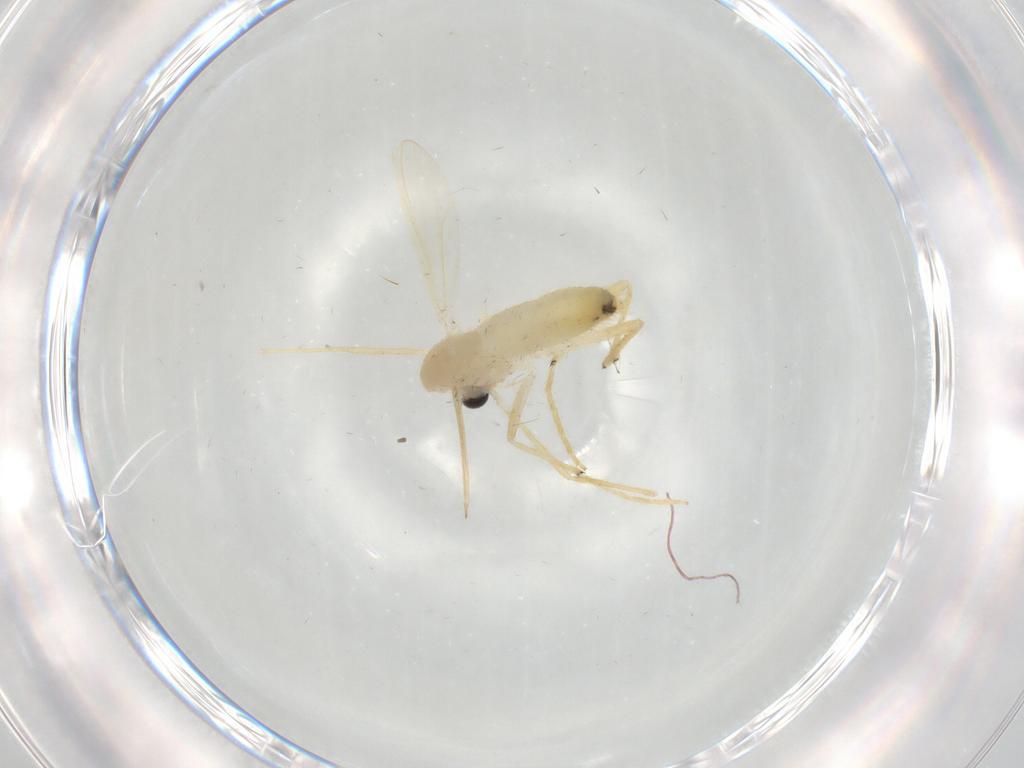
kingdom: Animalia
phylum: Arthropoda
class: Insecta
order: Diptera
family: Chironomidae
